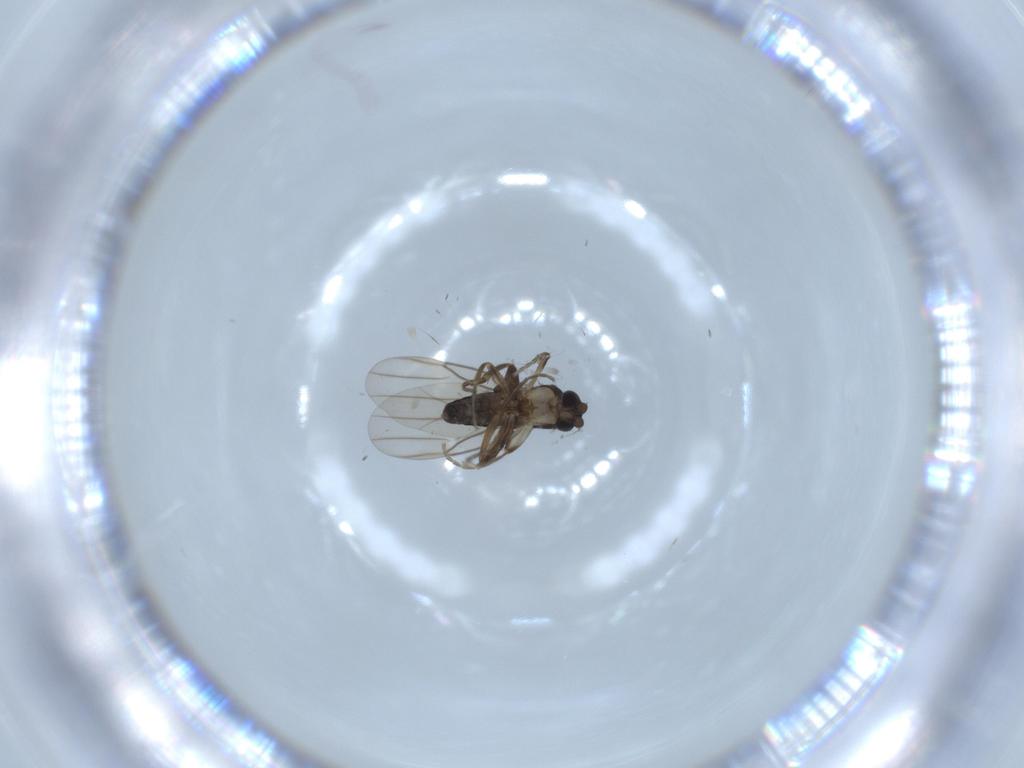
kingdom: Animalia
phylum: Arthropoda
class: Insecta
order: Diptera
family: Phoridae
